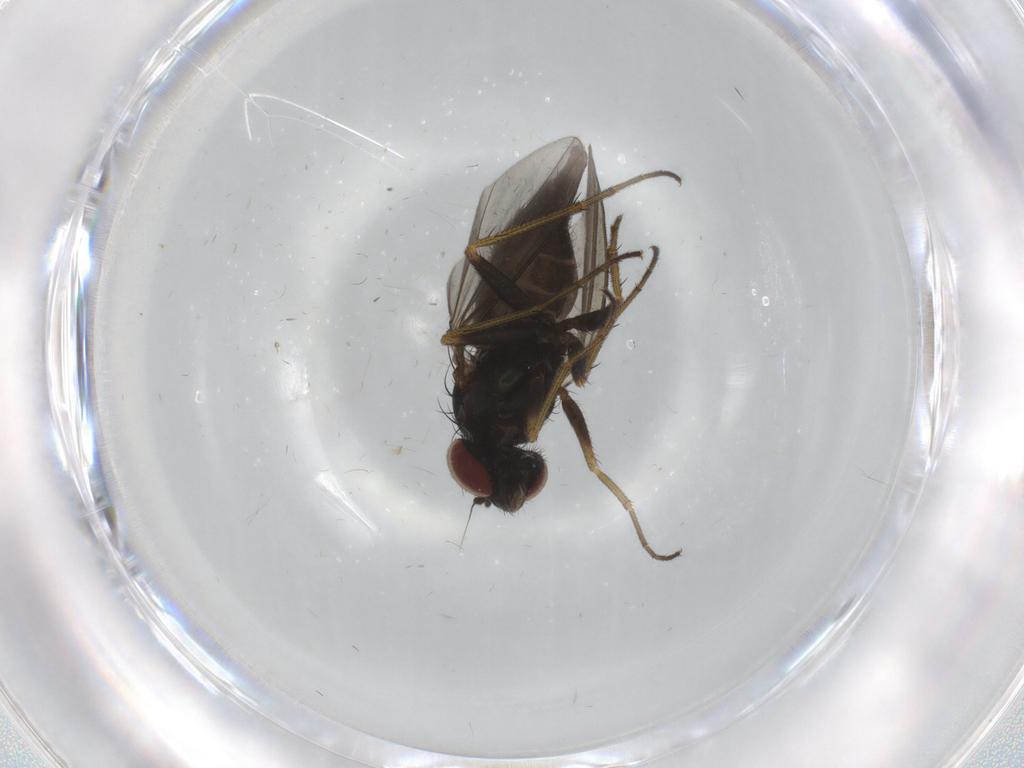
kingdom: Animalia
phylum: Arthropoda
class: Insecta
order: Diptera
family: Dolichopodidae
